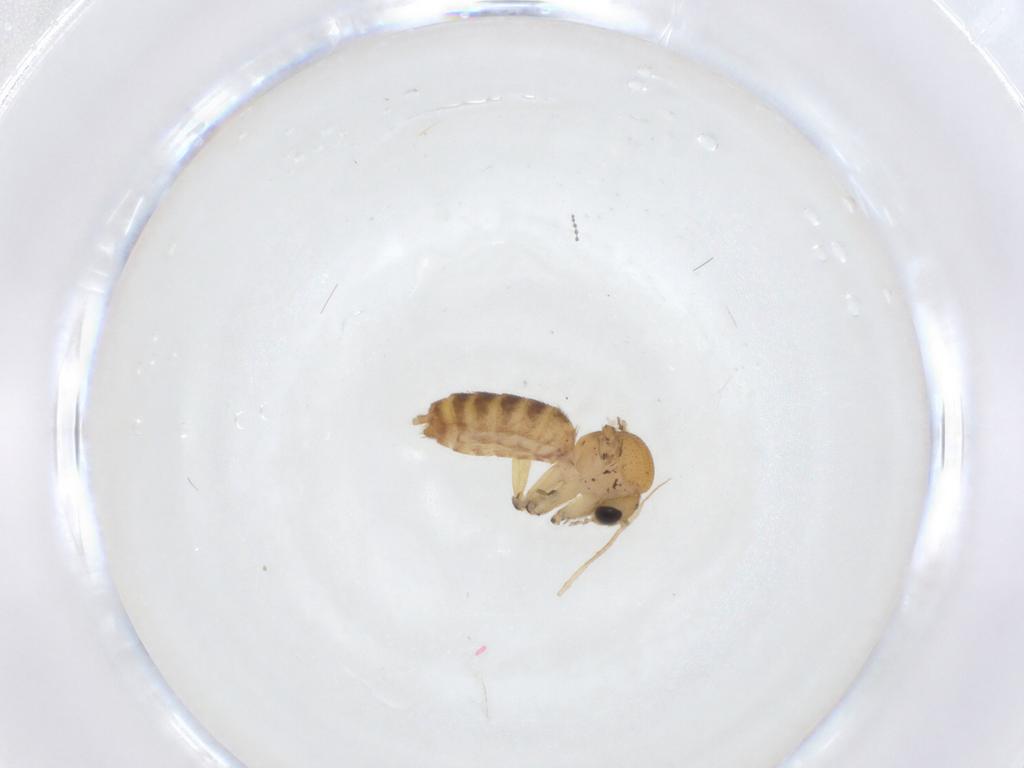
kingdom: Animalia
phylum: Arthropoda
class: Insecta
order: Diptera
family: Mycetophilidae
